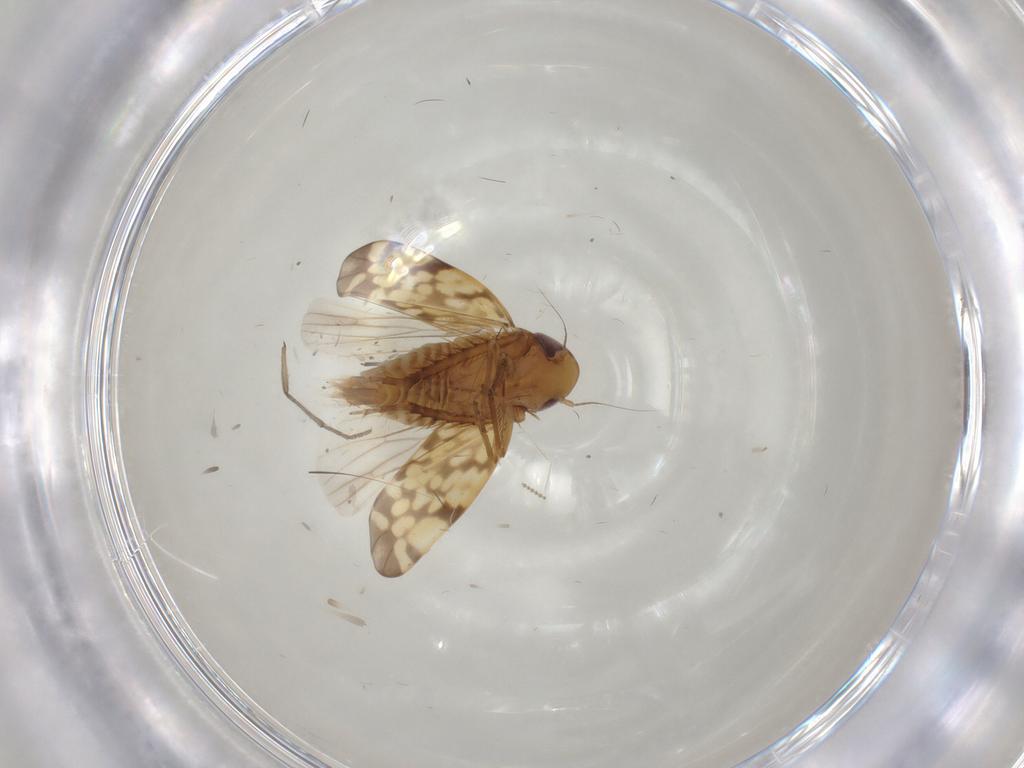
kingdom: Animalia
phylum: Arthropoda
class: Insecta
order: Hemiptera
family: Cicadellidae
